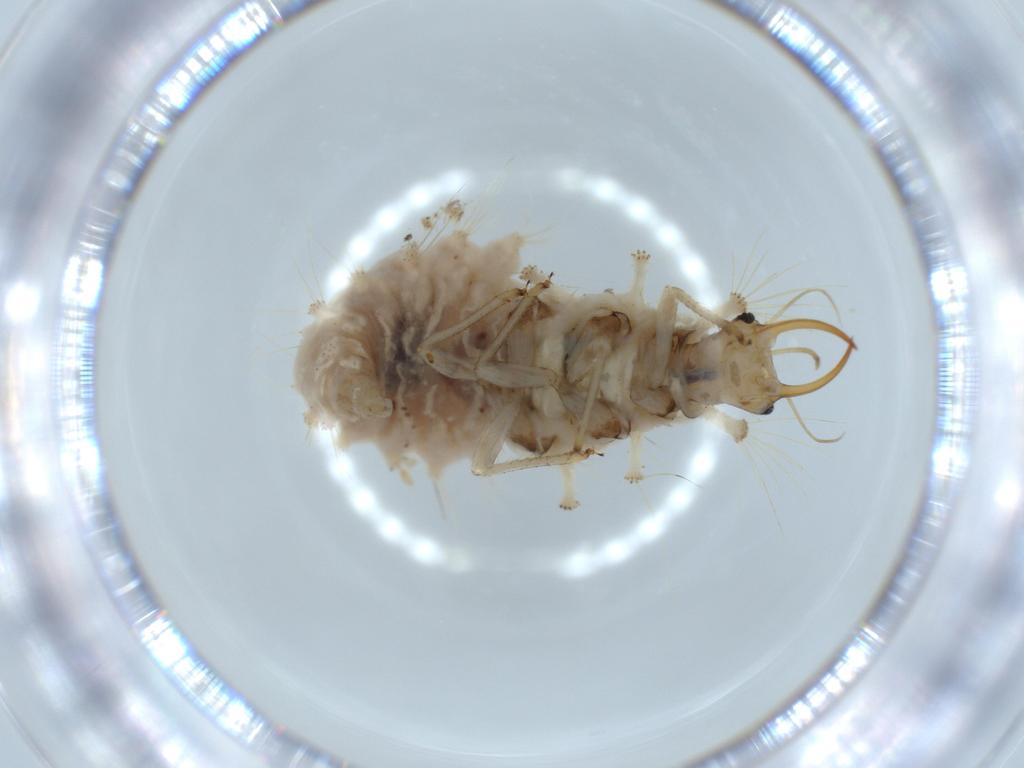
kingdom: Animalia
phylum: Arthropoda
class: Insecta
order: Neuroptera
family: Chrysopidae
